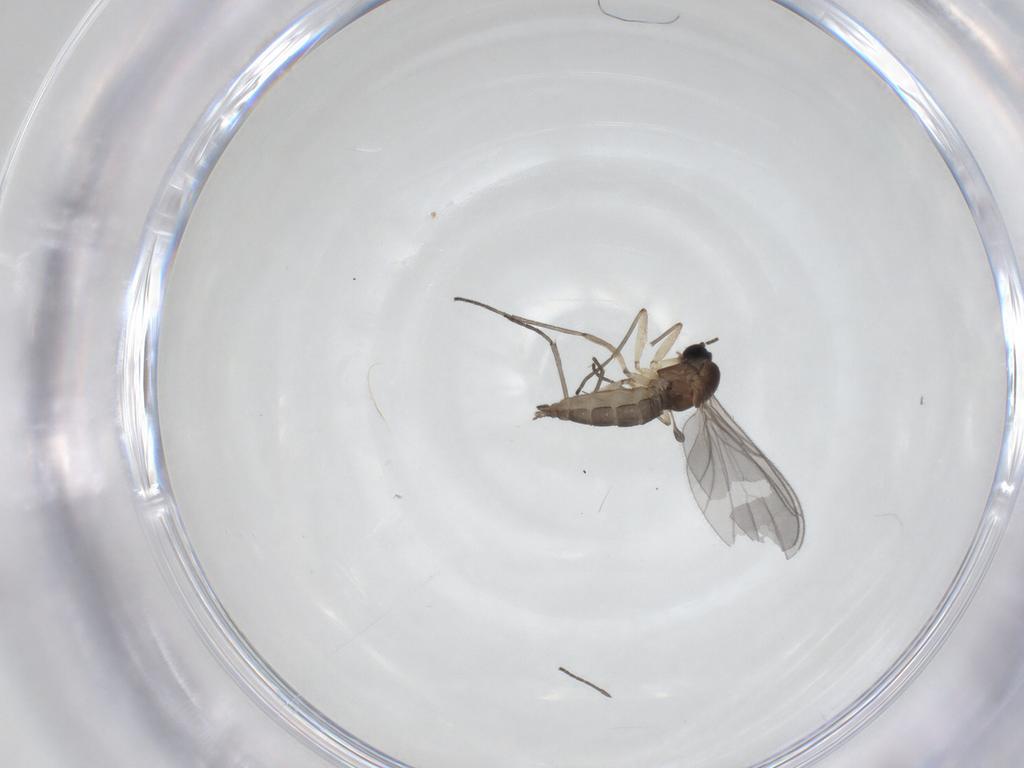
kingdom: Animalia
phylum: Arthropoda
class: Insecta
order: Diptera
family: Sciaridae
